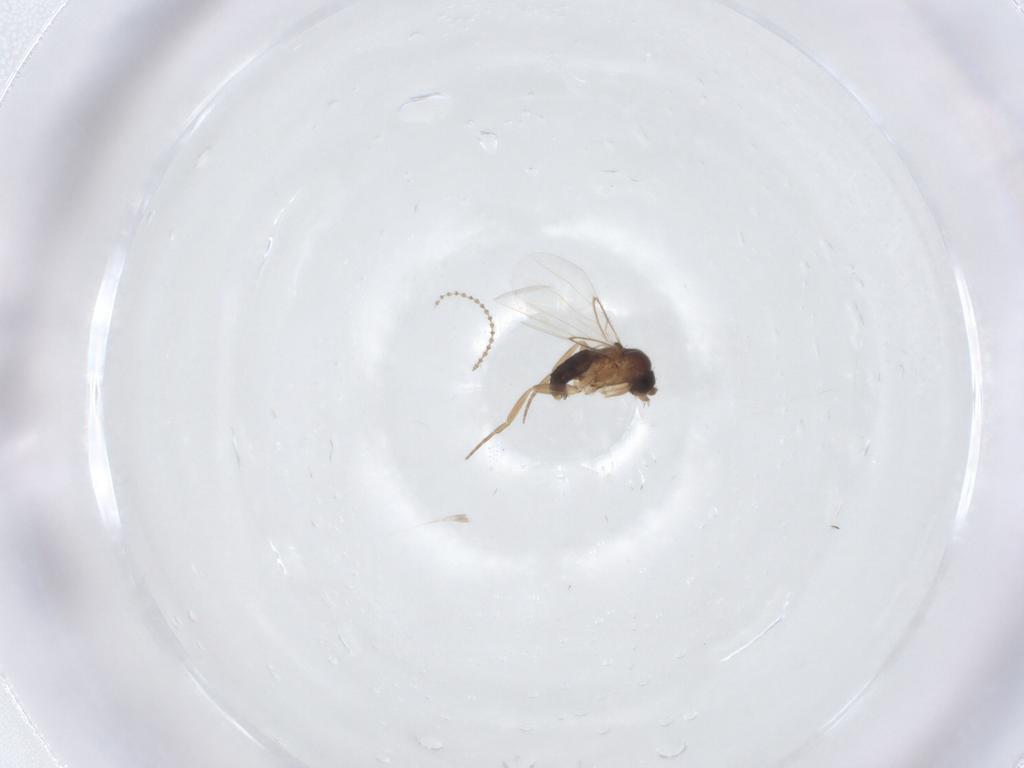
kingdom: Animalia
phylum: Arthropoda
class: Insecta
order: Diptera
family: Cecidomyiidae
